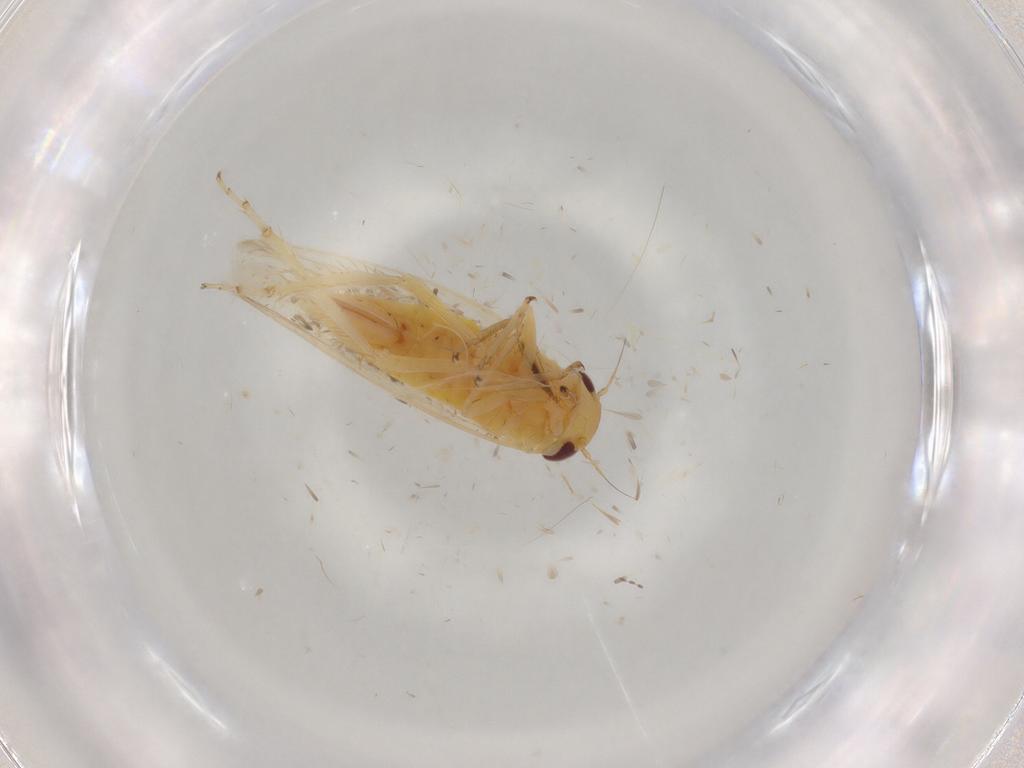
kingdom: Animalia
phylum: Arthropoda
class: Insecta
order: Hemiptera
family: Cicadellidae
